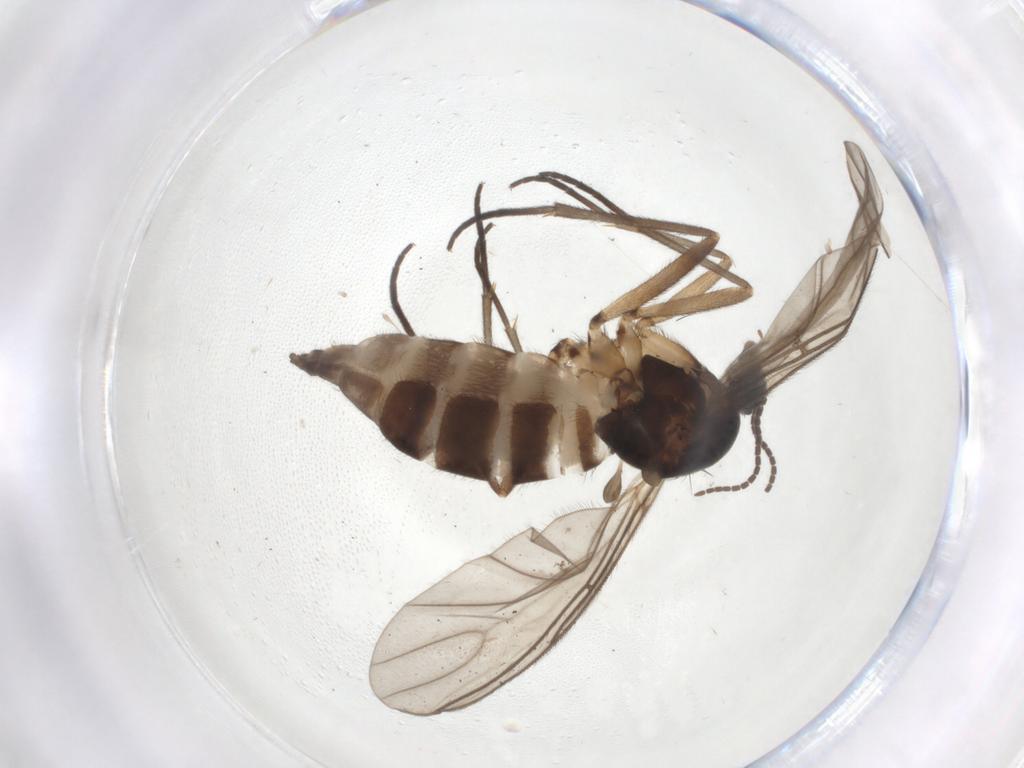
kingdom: Animalia
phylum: Arthropoda
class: Insecta
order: Diptera
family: Sciaridae
